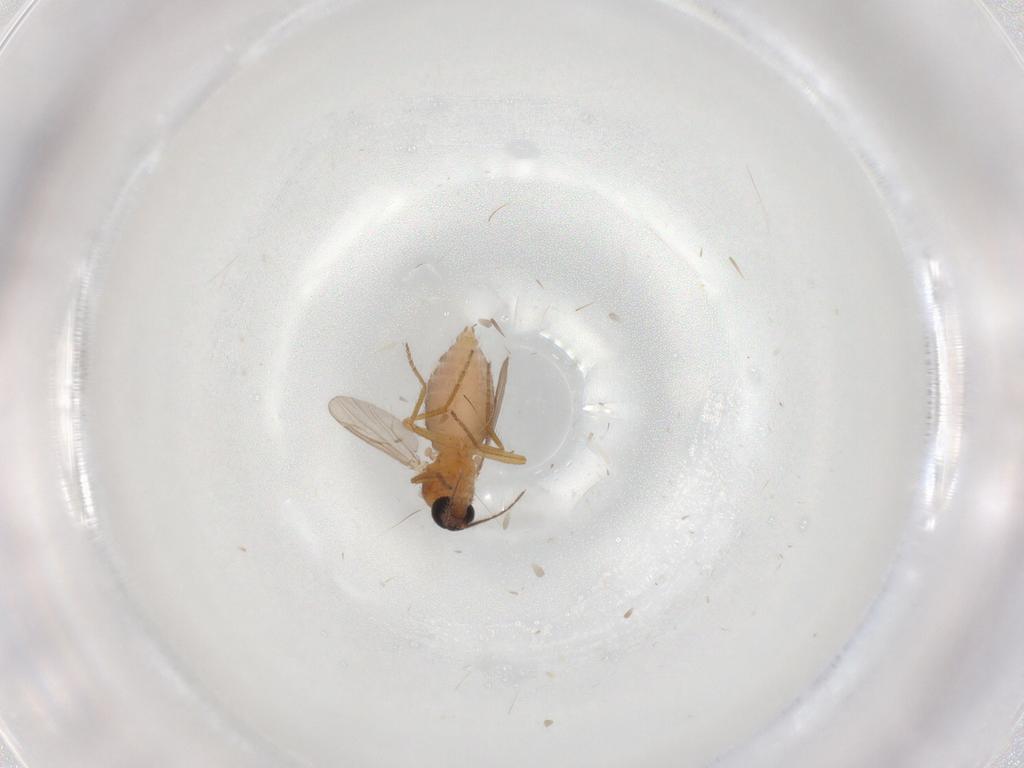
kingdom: Animalia
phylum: Arthropoda
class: Insecta
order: Diptera
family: Ceratopogonidae
